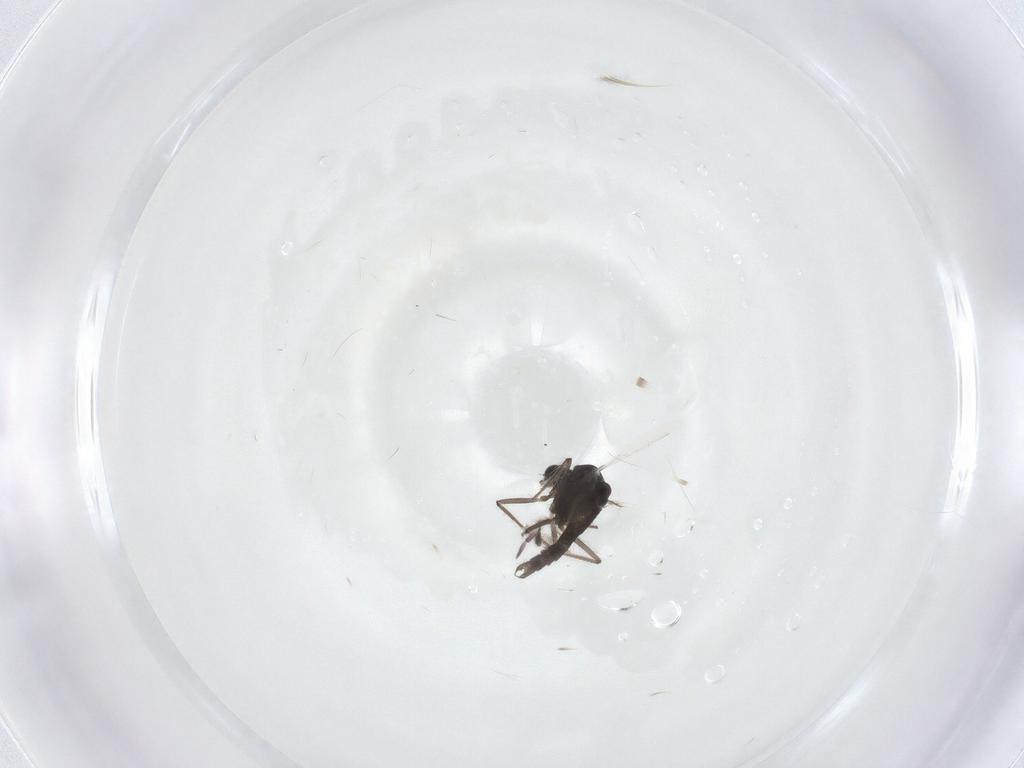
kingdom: Animalia
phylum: Arthropoda
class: Insecta
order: Diptera
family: Chironomidae
